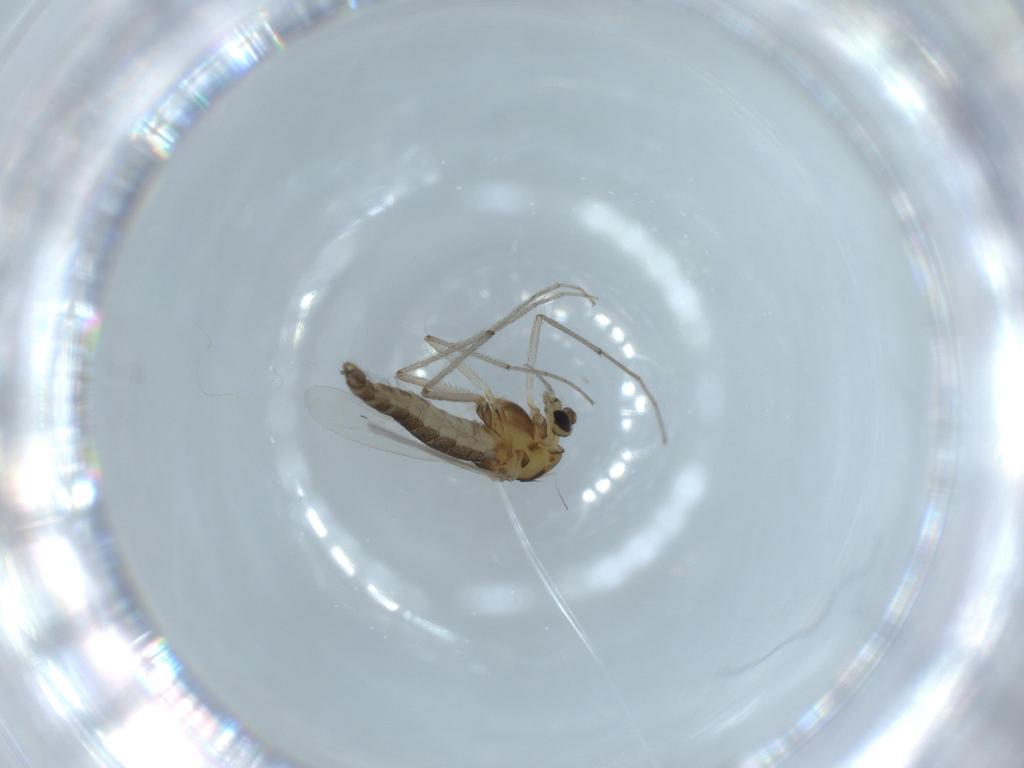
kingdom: Animalia
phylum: Arthropoda
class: Insecta
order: Diptera
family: Chironomidae
